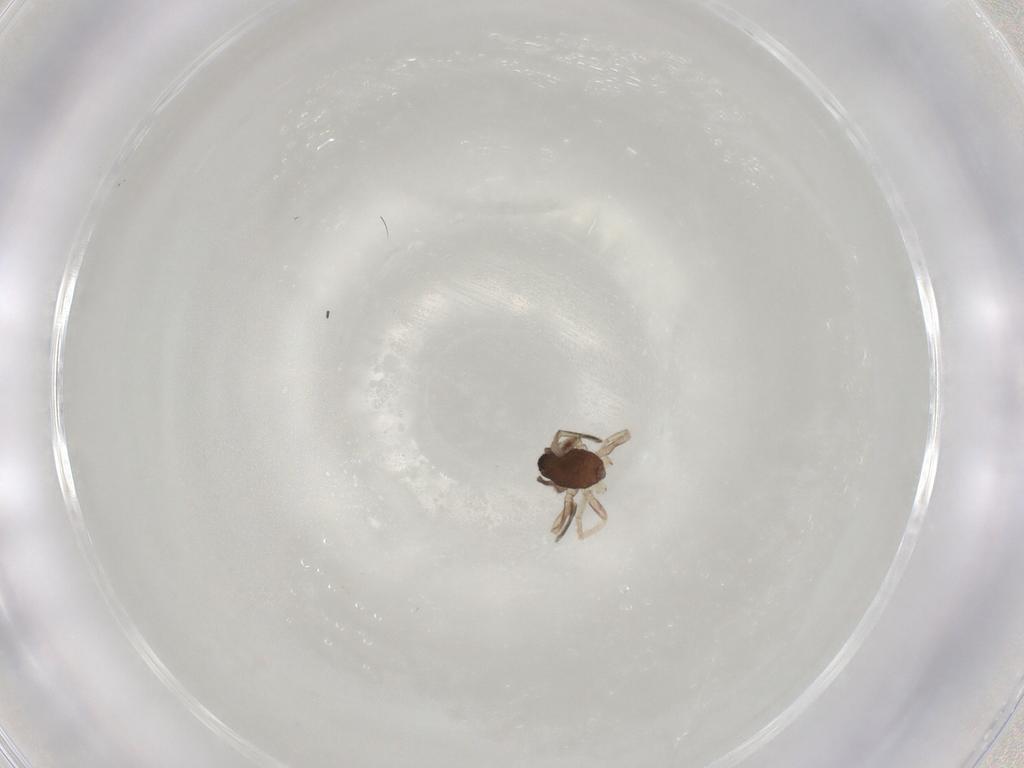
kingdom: Animalia
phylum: Arthropoda
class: Arachnida
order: Araneae
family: Gnaphosidae
